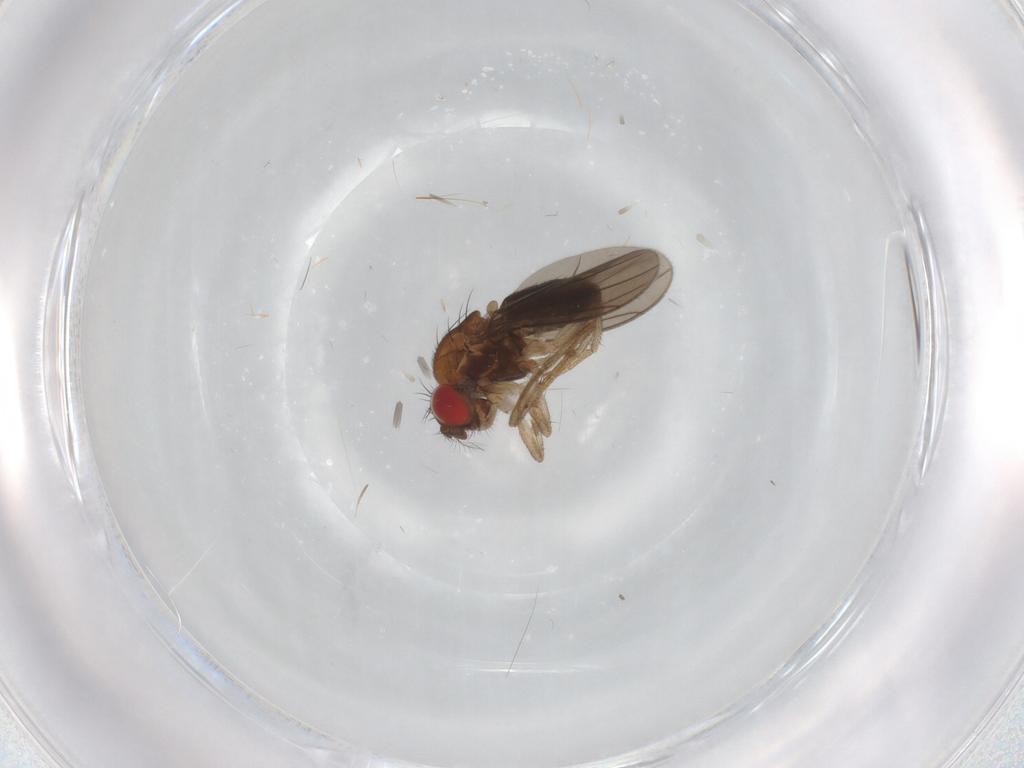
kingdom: Animalia
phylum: Arthropoda
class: Insecta
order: Diptera
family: Drosophilidae
